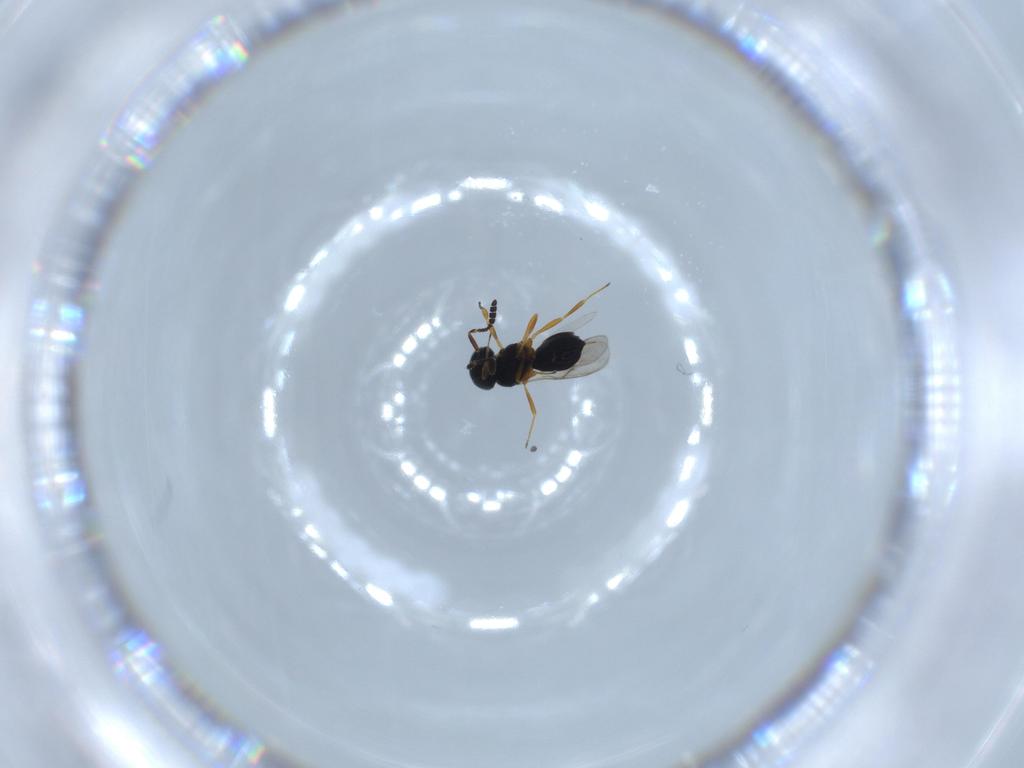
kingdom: Animalia
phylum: Arthropoda
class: Insecta
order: Hymenoptera
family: Scelionidae
